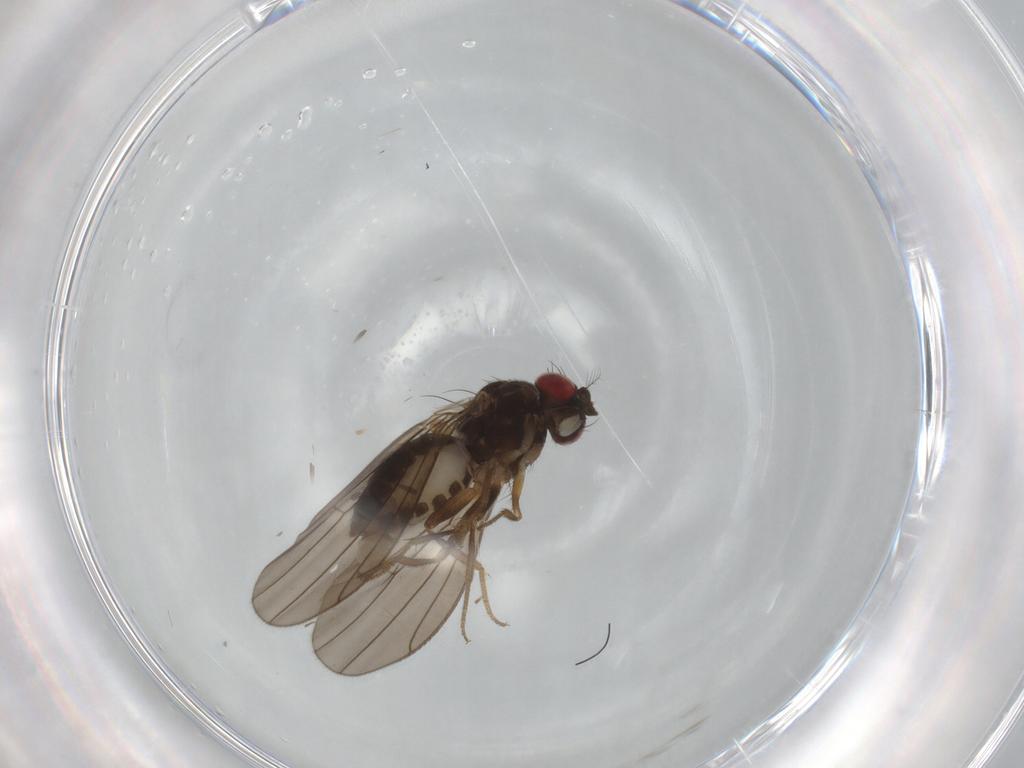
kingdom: Animalia
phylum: Arthropoda
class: Insecta
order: Diptera
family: Drosophilidae
